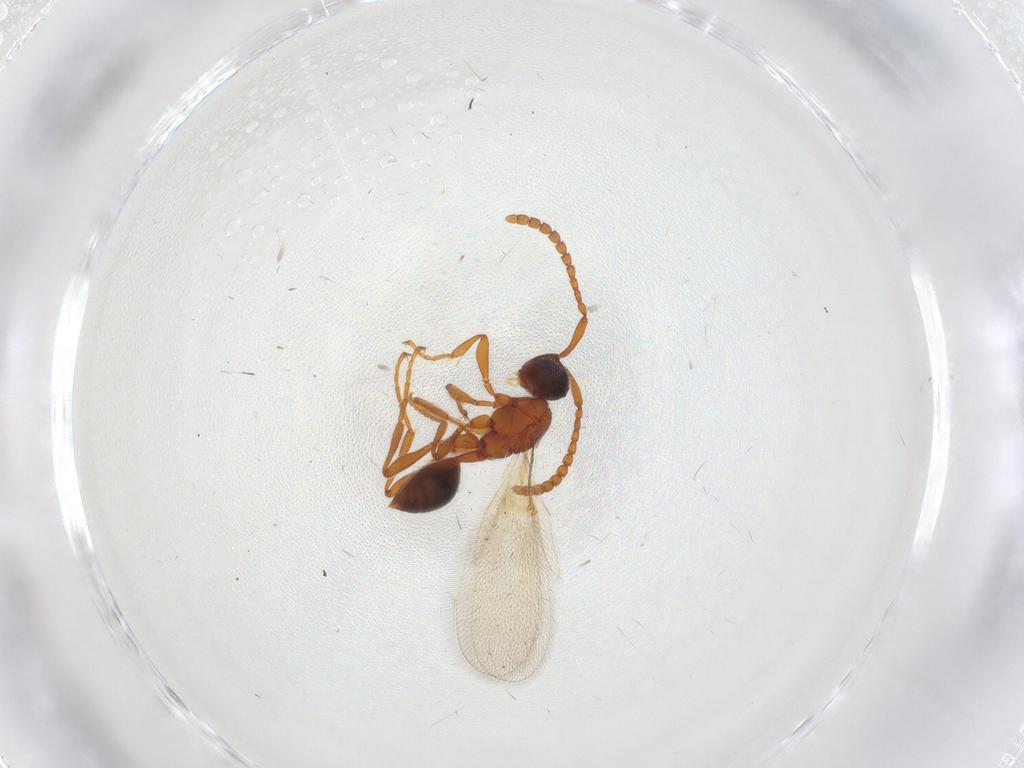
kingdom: Animalia
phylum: Arthropoda
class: Insecta
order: Hymenoptera
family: Diapriidae
